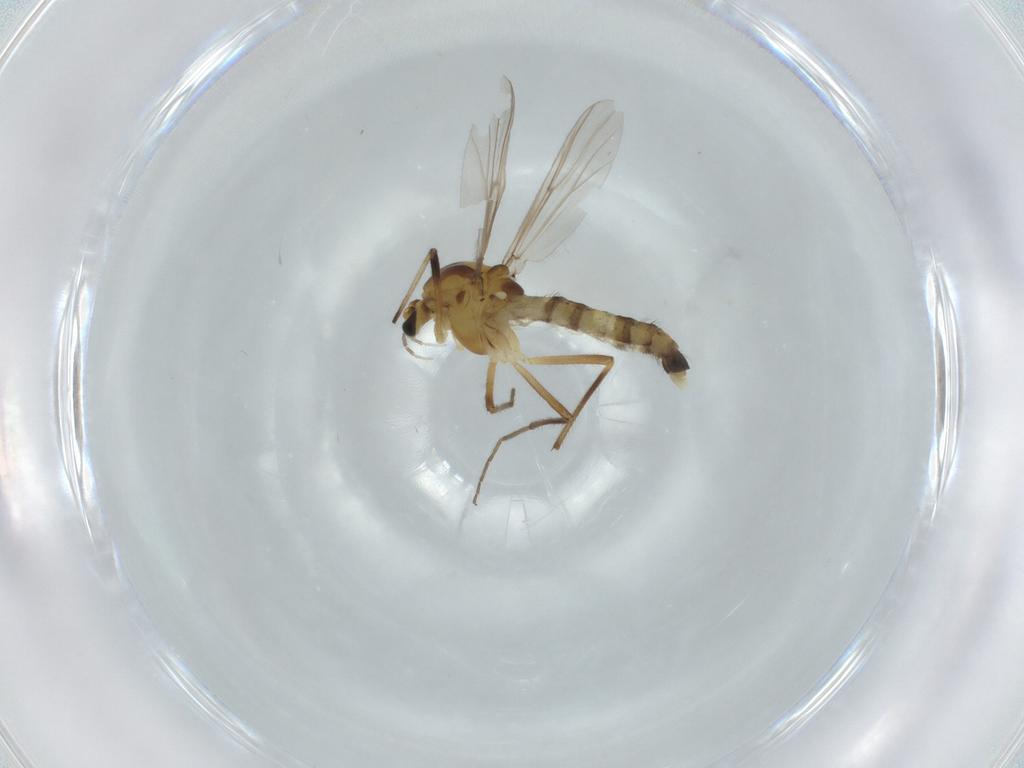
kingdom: Animalia
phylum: Arthropoda
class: Insecta
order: Diptera
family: Chironomidae
